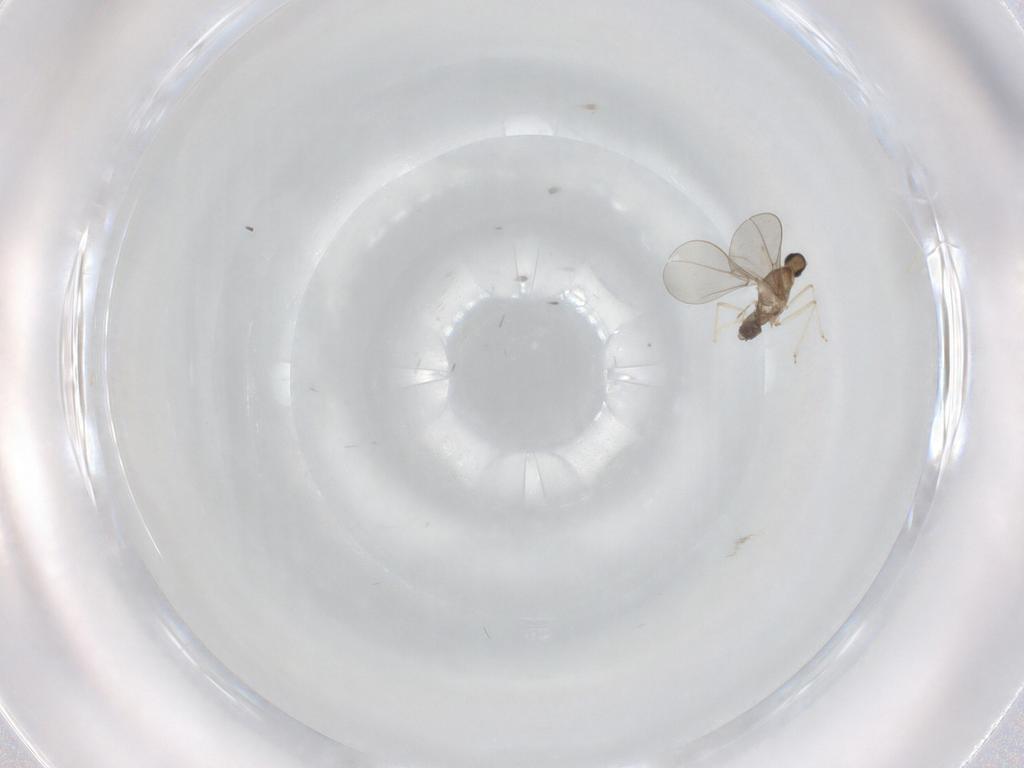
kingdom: Animalia
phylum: Arthropoda
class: Insecta
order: Diptera
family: Cecidomyiidae
